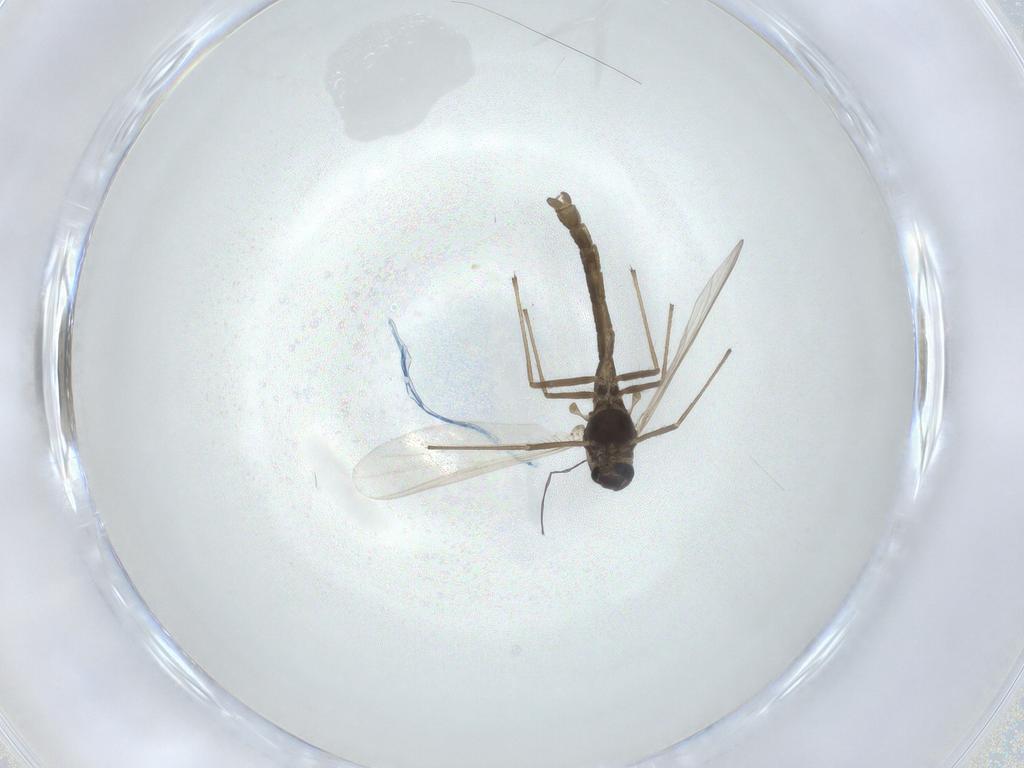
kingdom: Animalia
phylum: Arthropoda
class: Insecta
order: Diptera
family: Chironomidae
